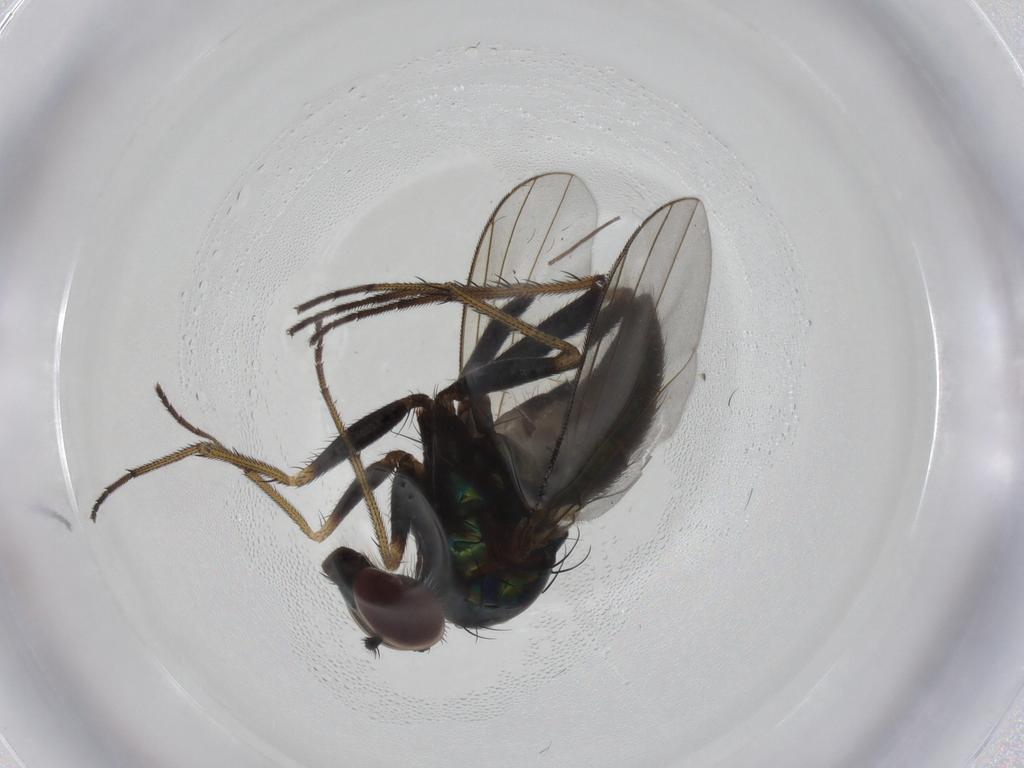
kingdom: Animalia
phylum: Arthropoda
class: Insecta
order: Diptera
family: Dolichopodidae
